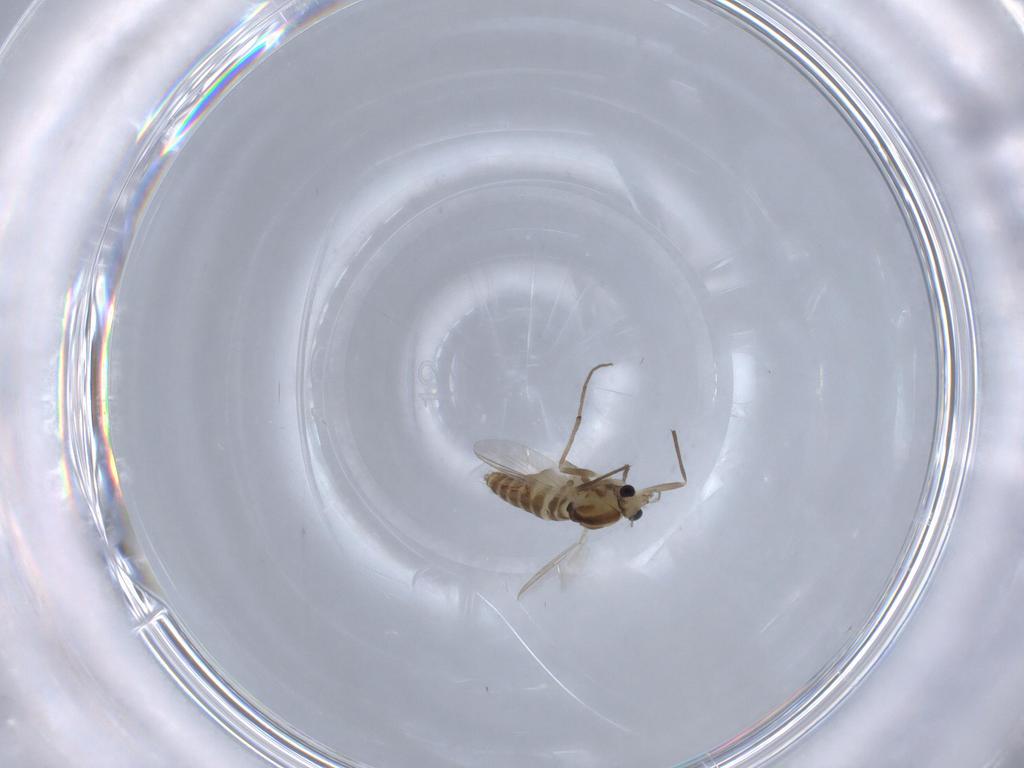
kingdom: Animalia
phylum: Arthropoda
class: Insecta
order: Diptera
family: Chironomidae
